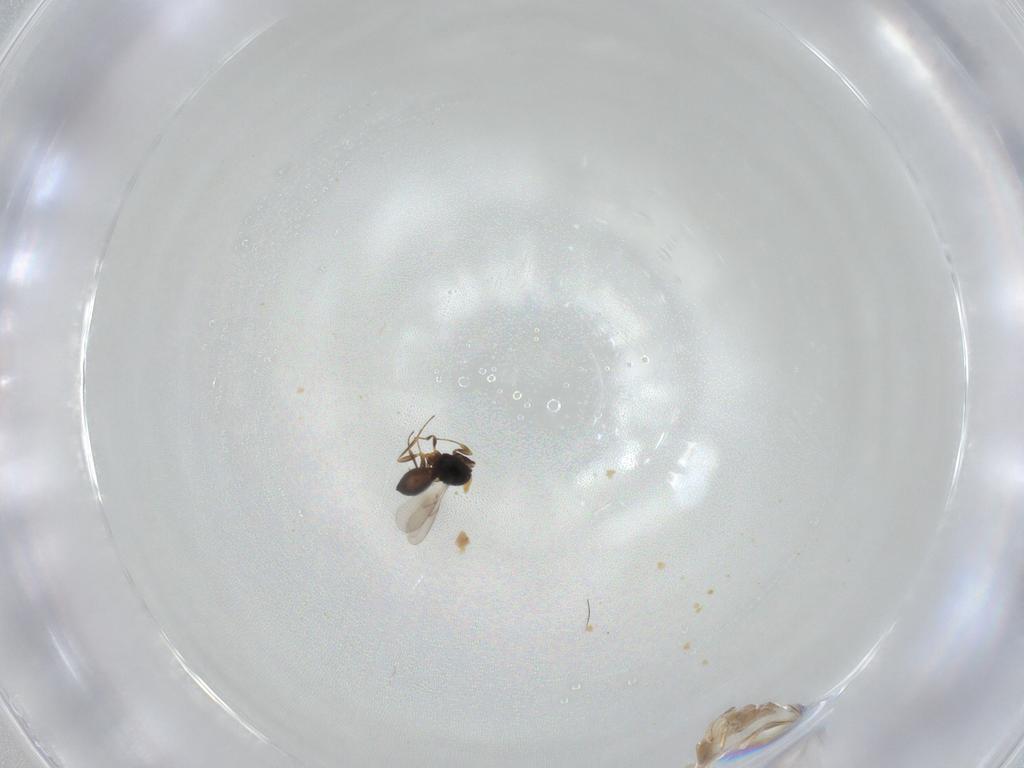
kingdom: Animalia
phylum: Arthropoda
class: Insecta
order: Hymenoptera
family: Scelionidae
